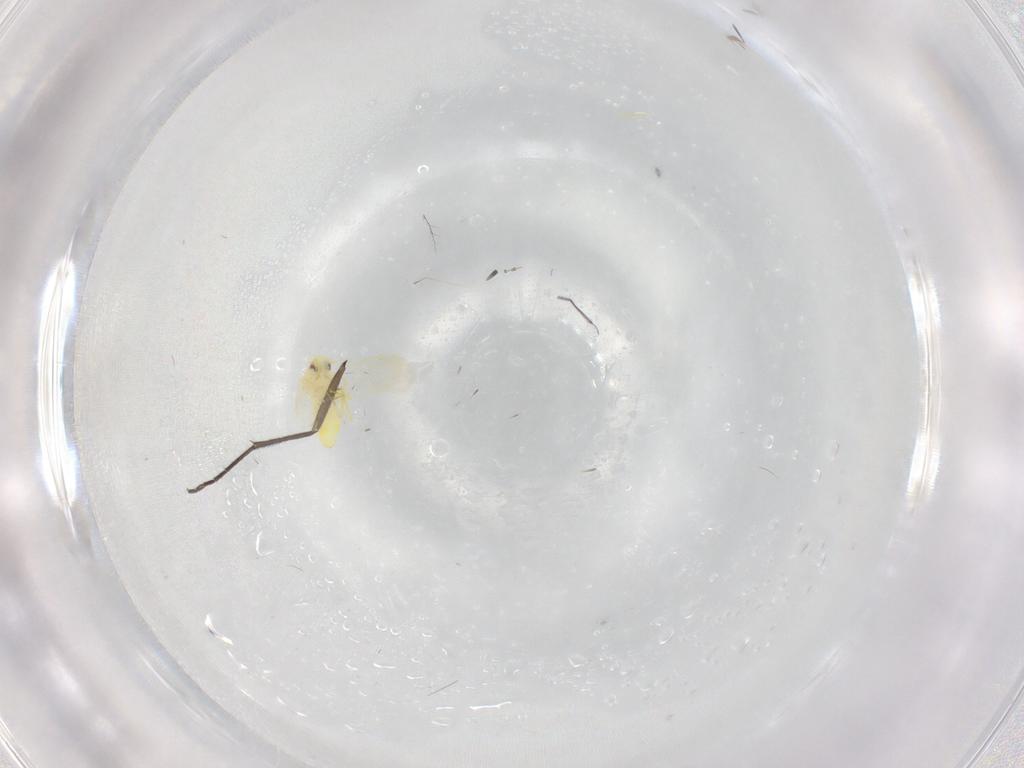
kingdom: Animalia
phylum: Arthropoda
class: Insecta
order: Hemiptera
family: Aleyrodidae
